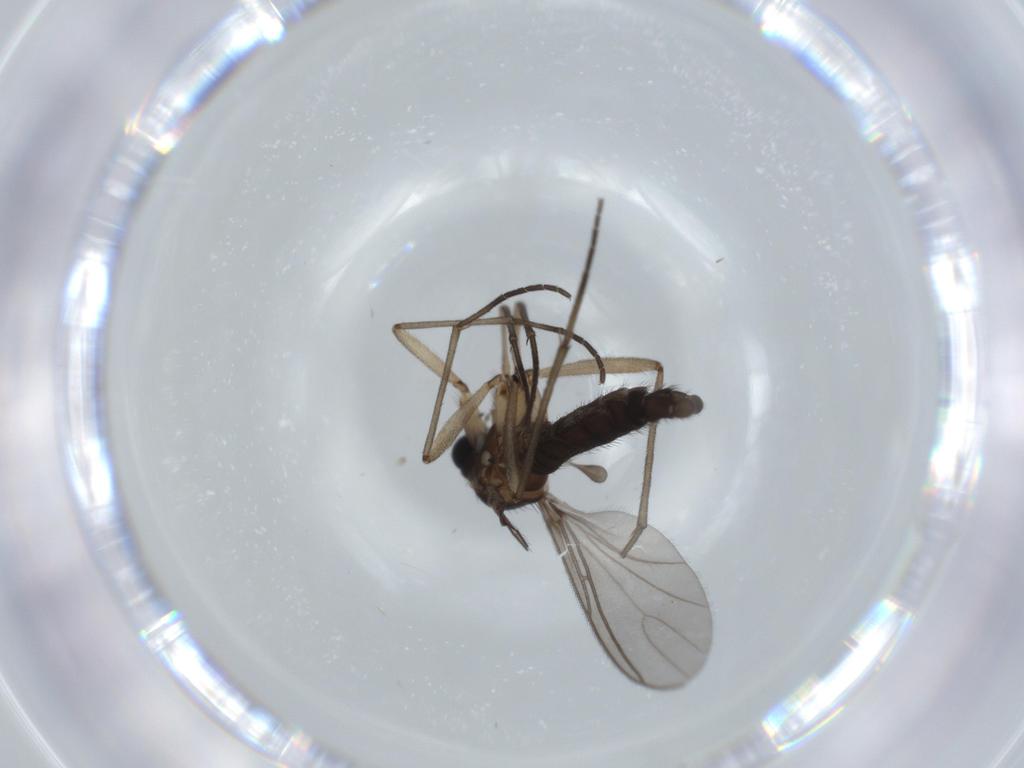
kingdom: Animalia
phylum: Arthropoda
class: Insecta
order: Diptera
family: Sciaridae
